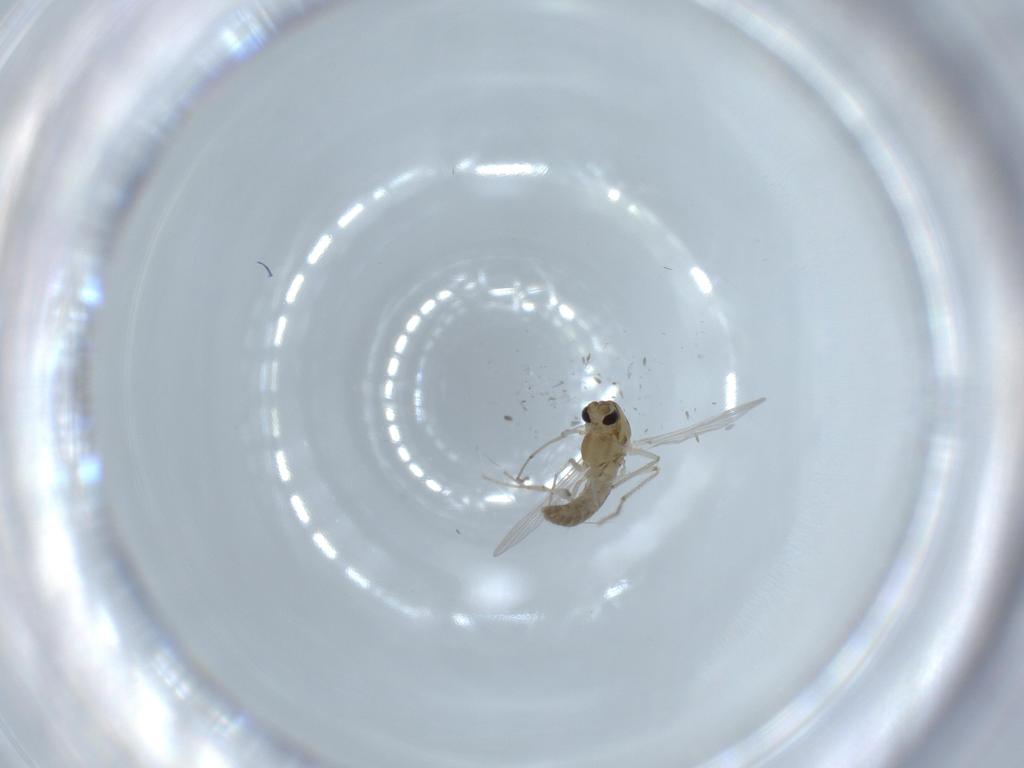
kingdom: Animalia
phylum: Arthropoda
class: Insecta
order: Diptera
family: Chironomidae
